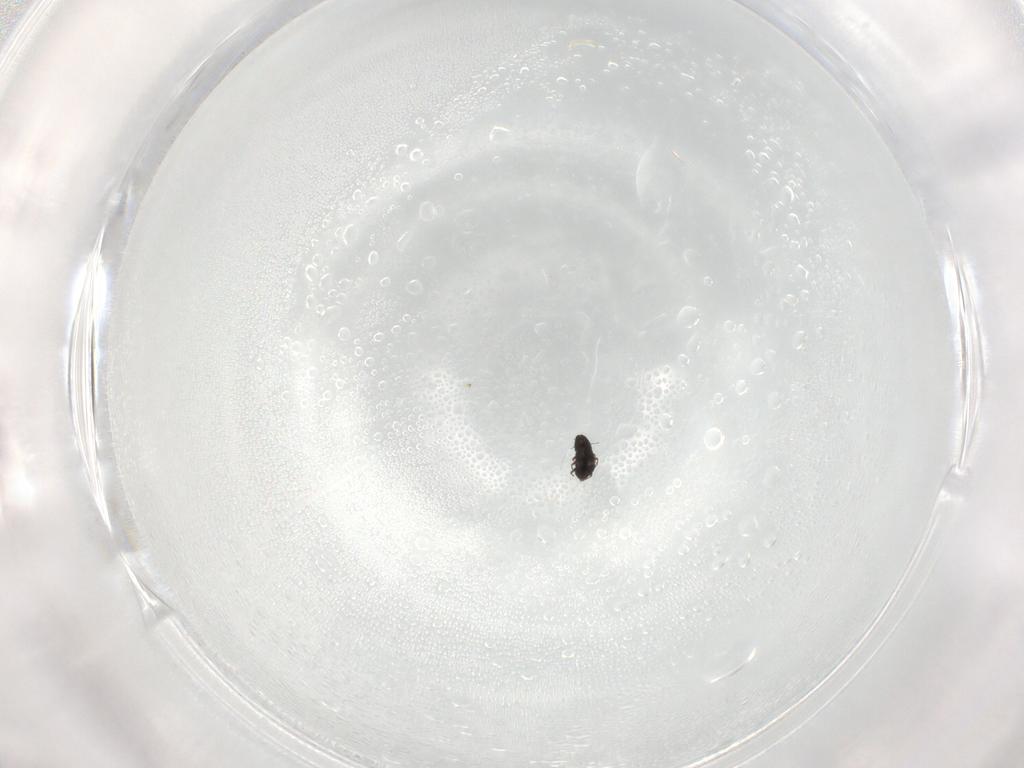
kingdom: Animalia
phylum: Arthropoda
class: Insecta
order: Coleoptera
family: Ripiphoridae
